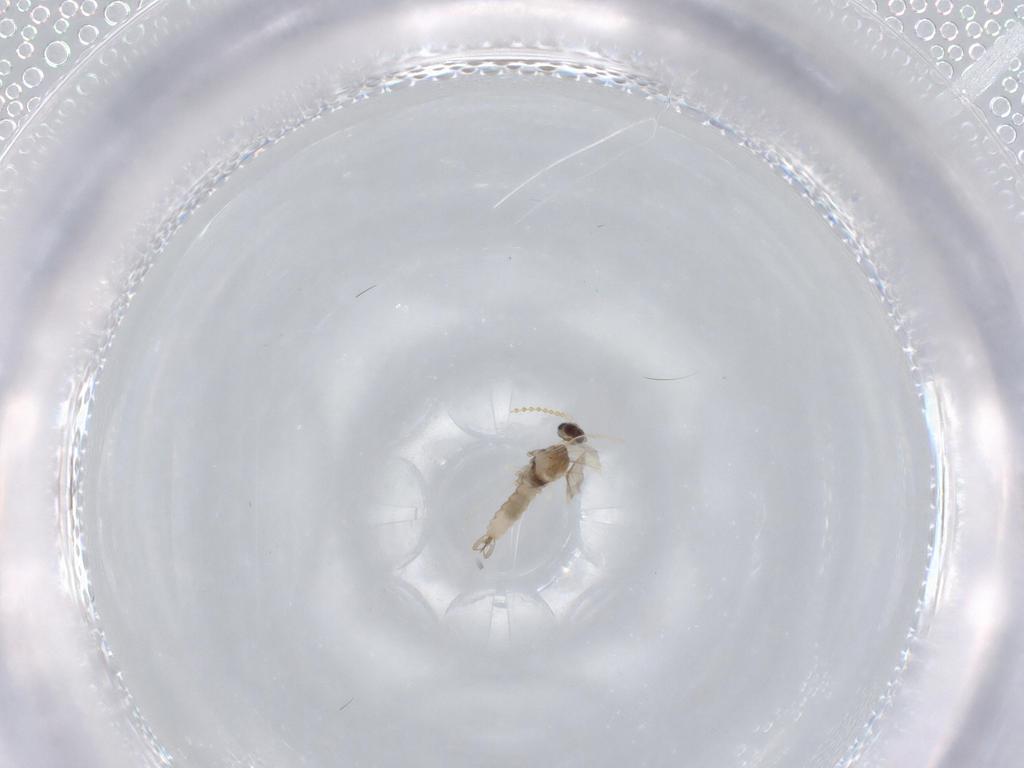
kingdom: Animalia
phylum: Arthropoda
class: Insecta
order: Diptera
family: Cecidomyiidae
